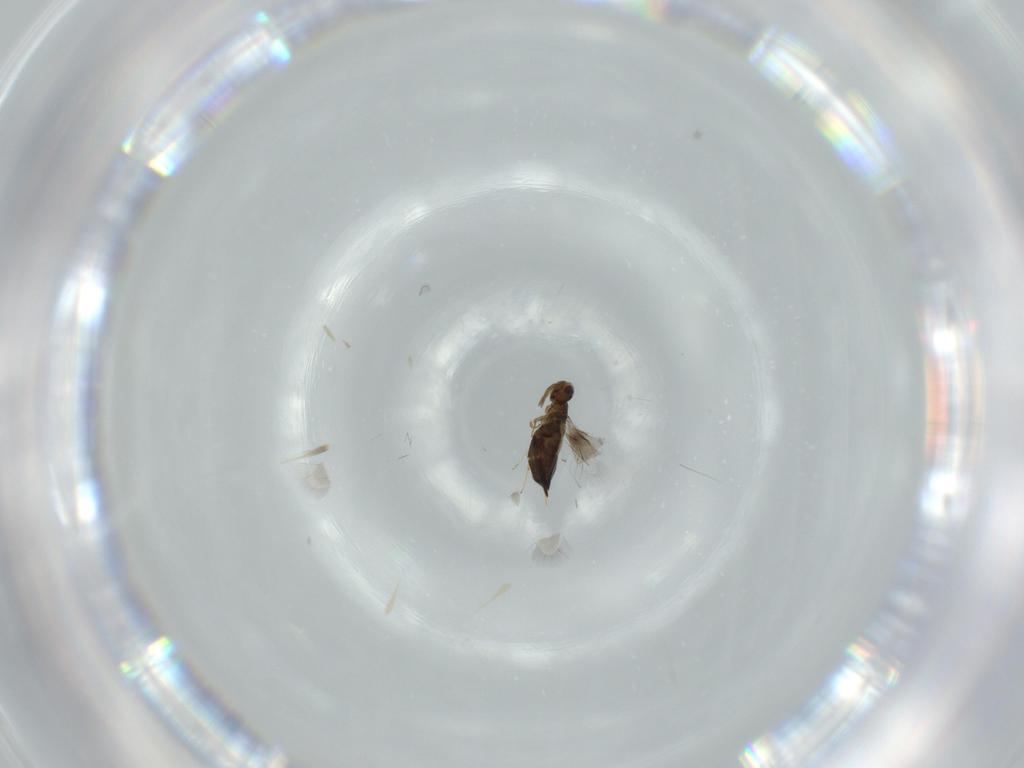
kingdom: Animalia
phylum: Arthropoda
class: Insecta
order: Hymenoptera
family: Signiphoridae
